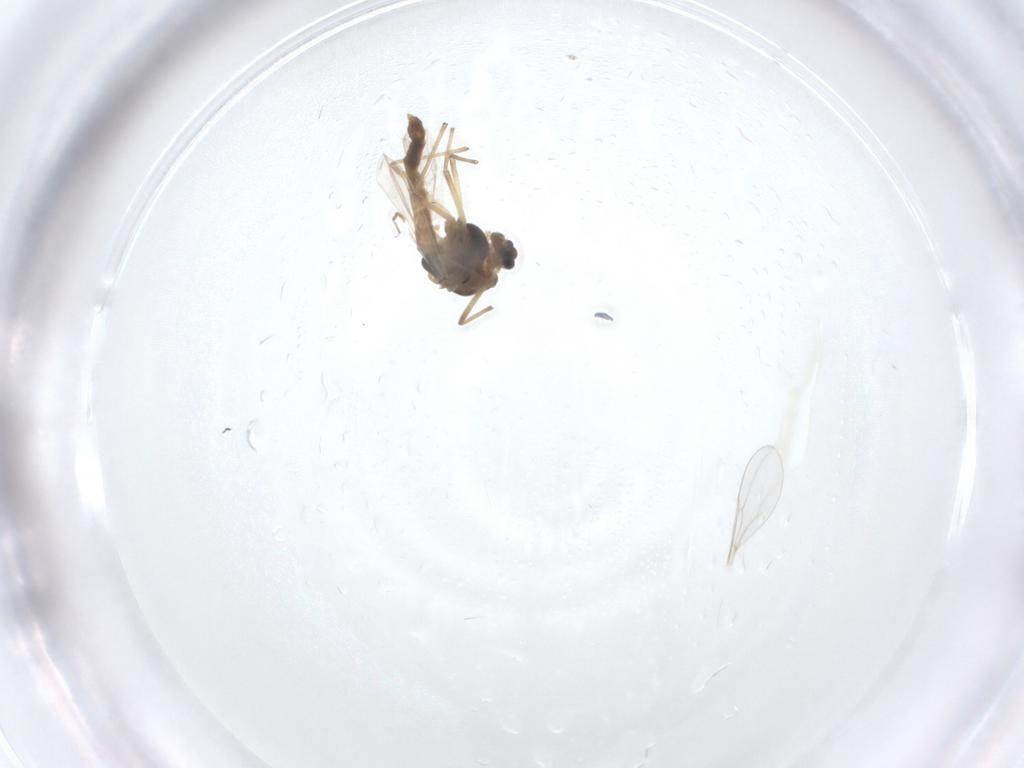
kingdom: Animalia
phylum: Arthropoda
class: Insecta
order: Diptera
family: Chironomidae
